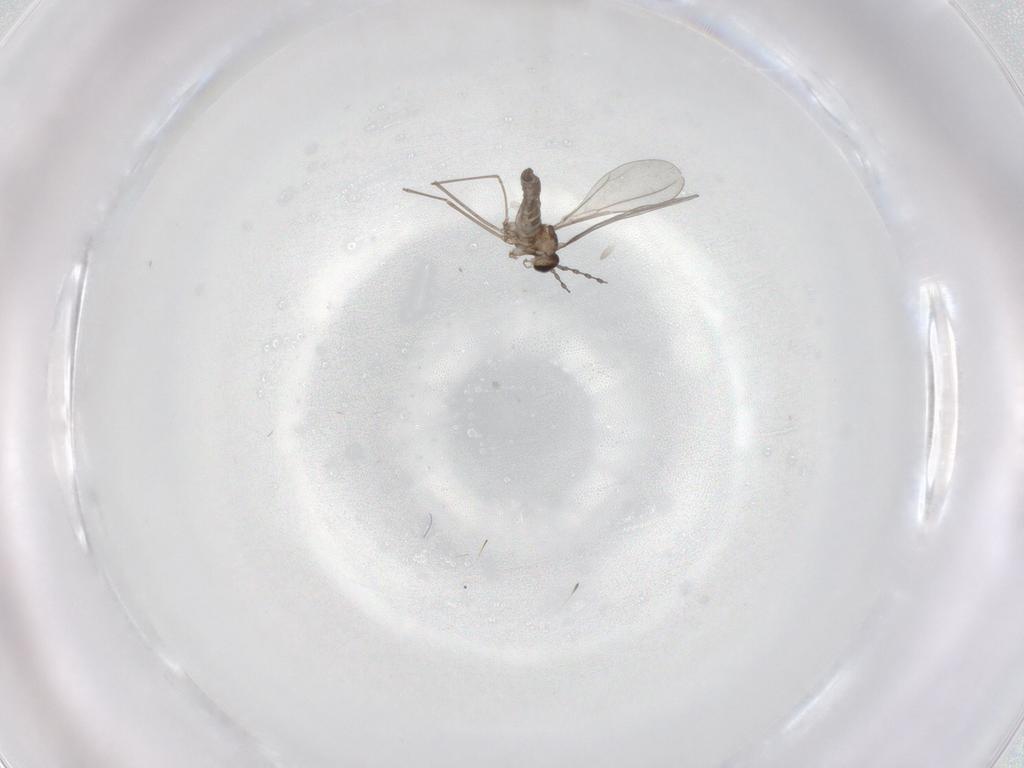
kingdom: Animalia
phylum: Arthropoda
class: Insecta
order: Diptera
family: Cecidomyiidae
